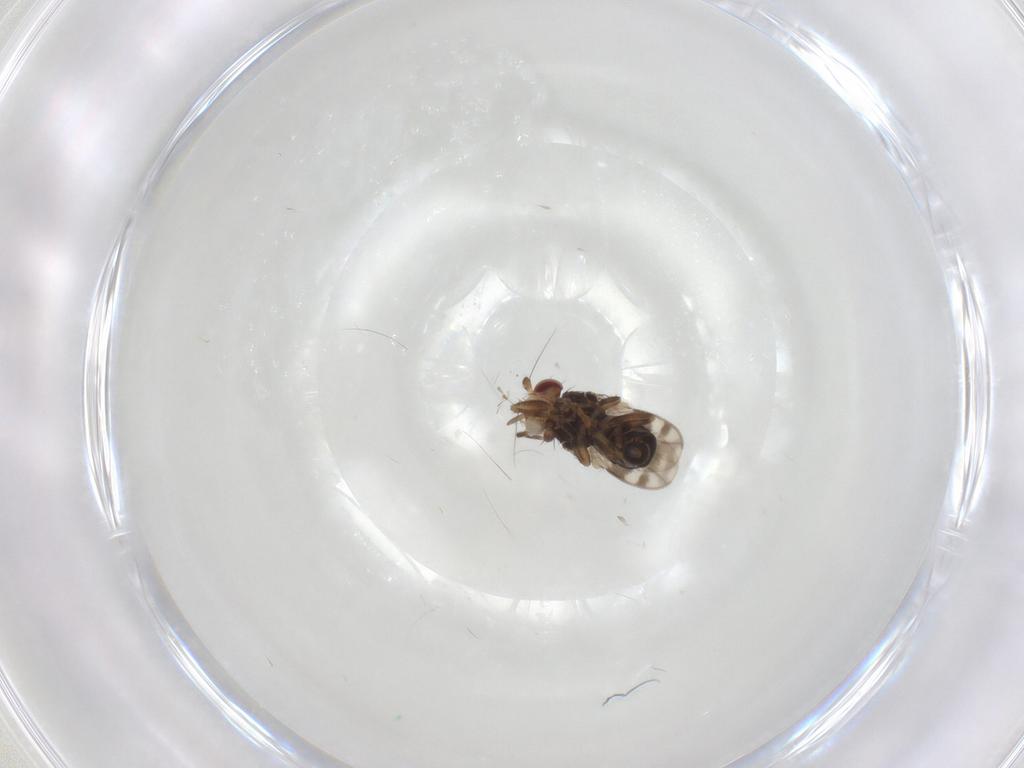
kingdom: Animalia
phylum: Arthropoda
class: Insecta
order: Diptera
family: Sphaeroceridae
